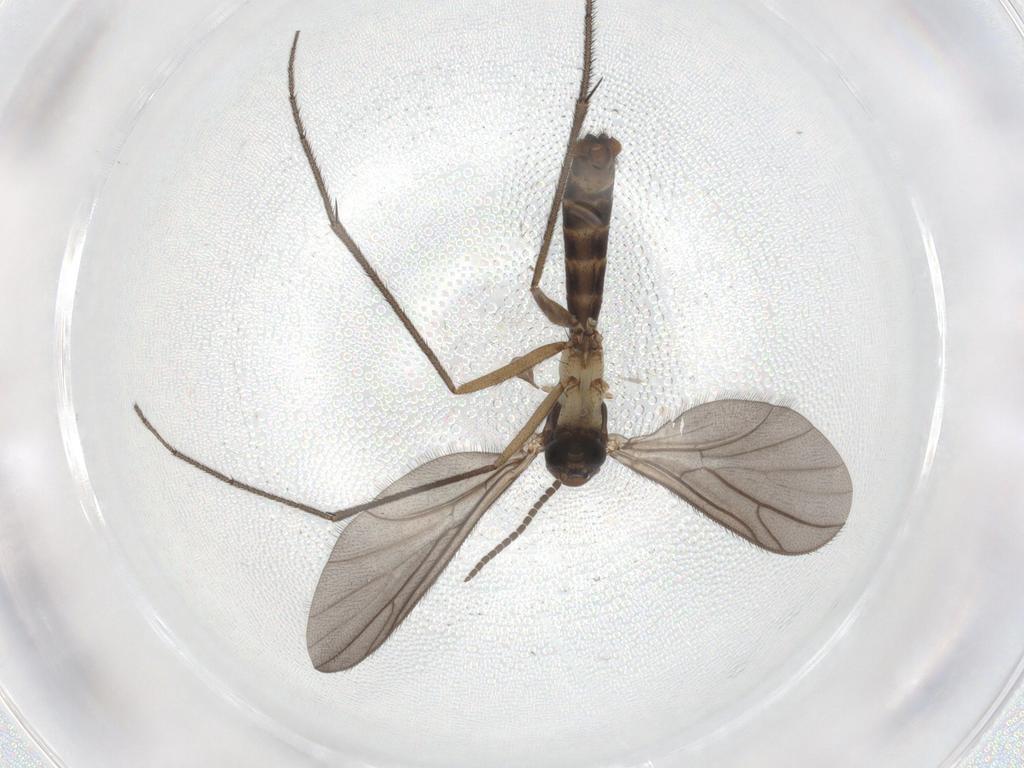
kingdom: Animalia
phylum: Arthropoda
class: Insecta
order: Diptera
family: Ditomyiidae
